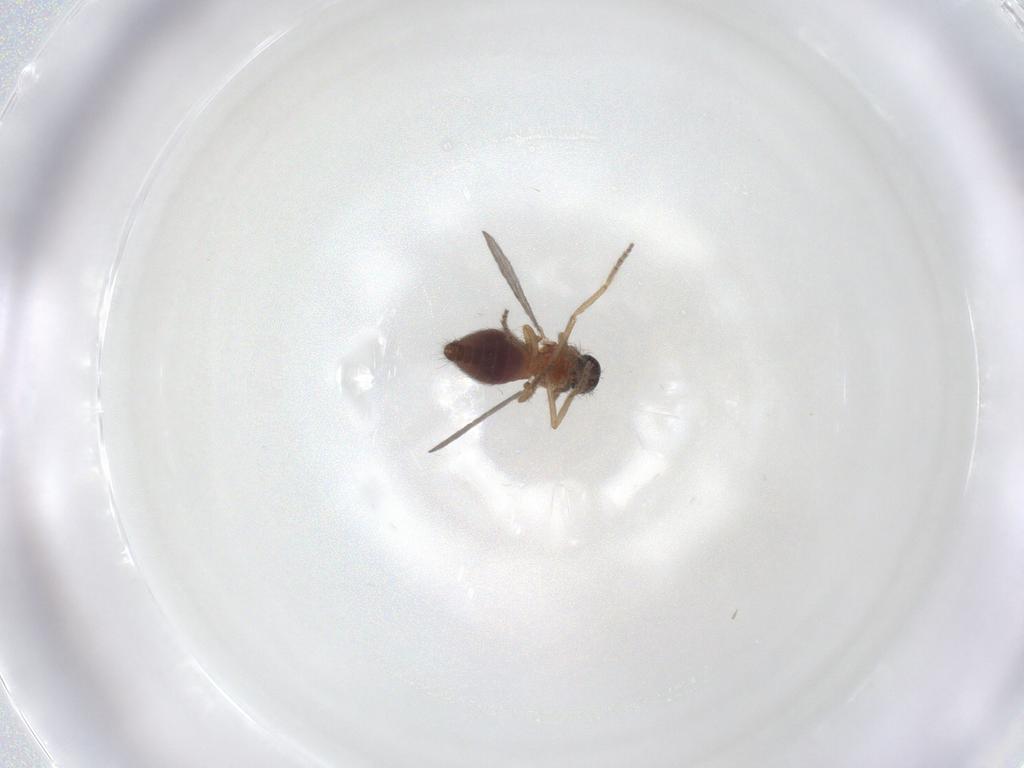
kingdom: Animalia
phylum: Arthropoda
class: Insecta
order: Diptera
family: Ceratopogonidae
